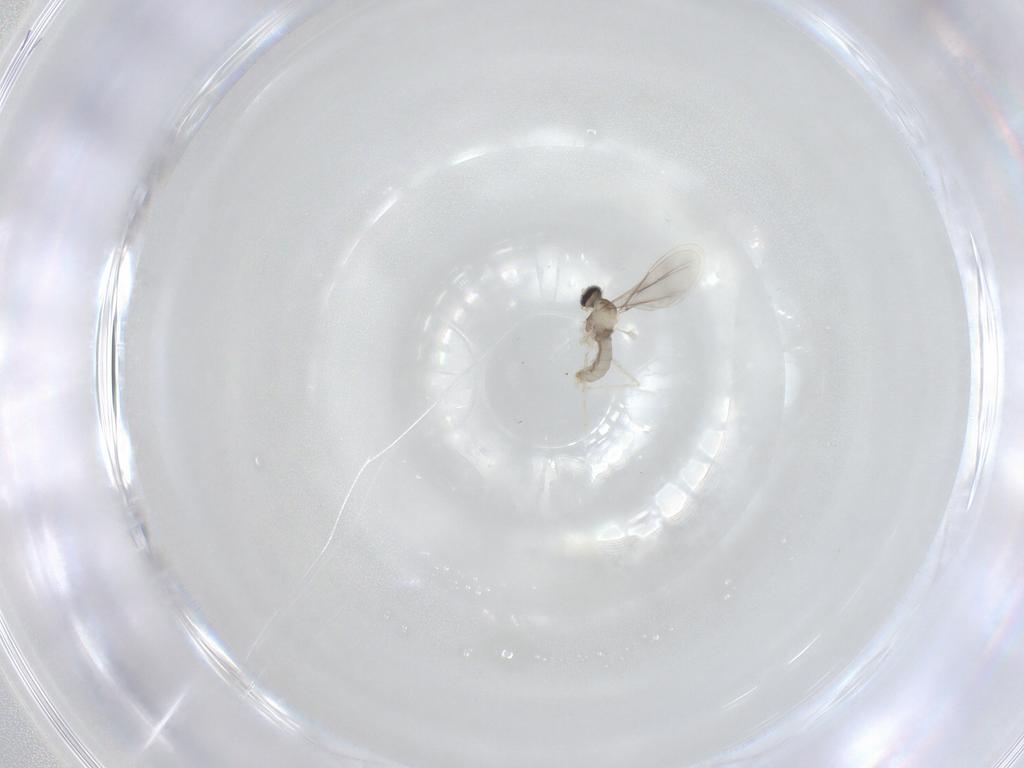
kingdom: Animalia
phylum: Arthropoda
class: Insecta
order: Diptera
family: Cecidomyiidae
